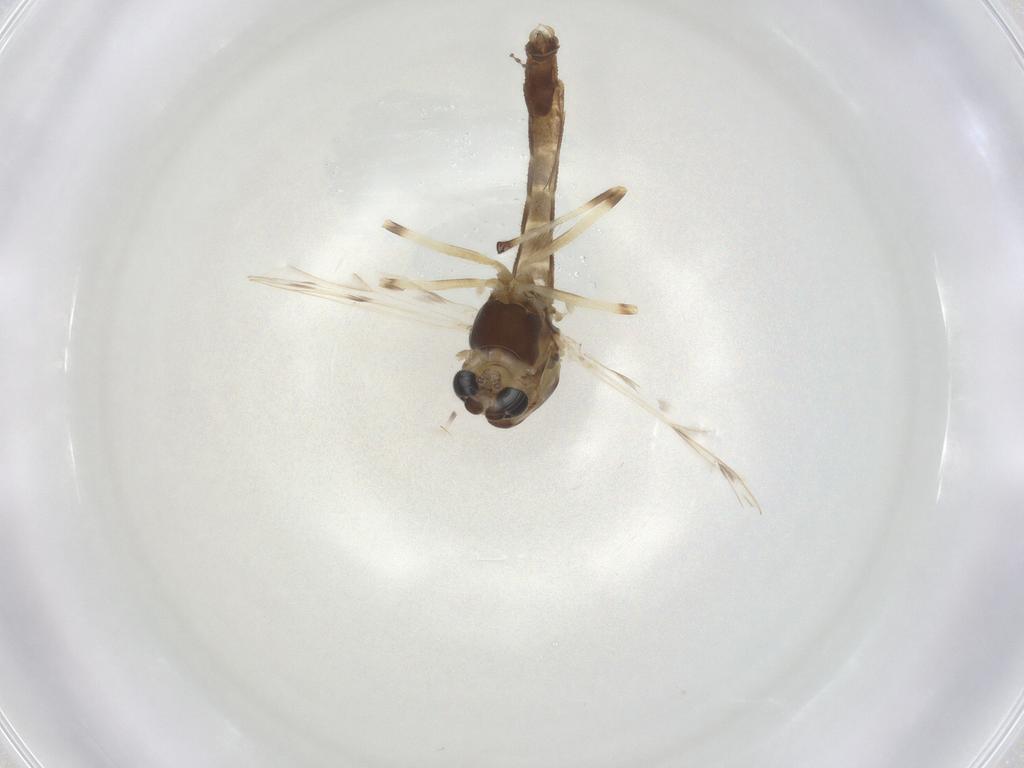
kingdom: Animalia
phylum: Arthropoda
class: Insecta
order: Diptera
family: Chironomidae
